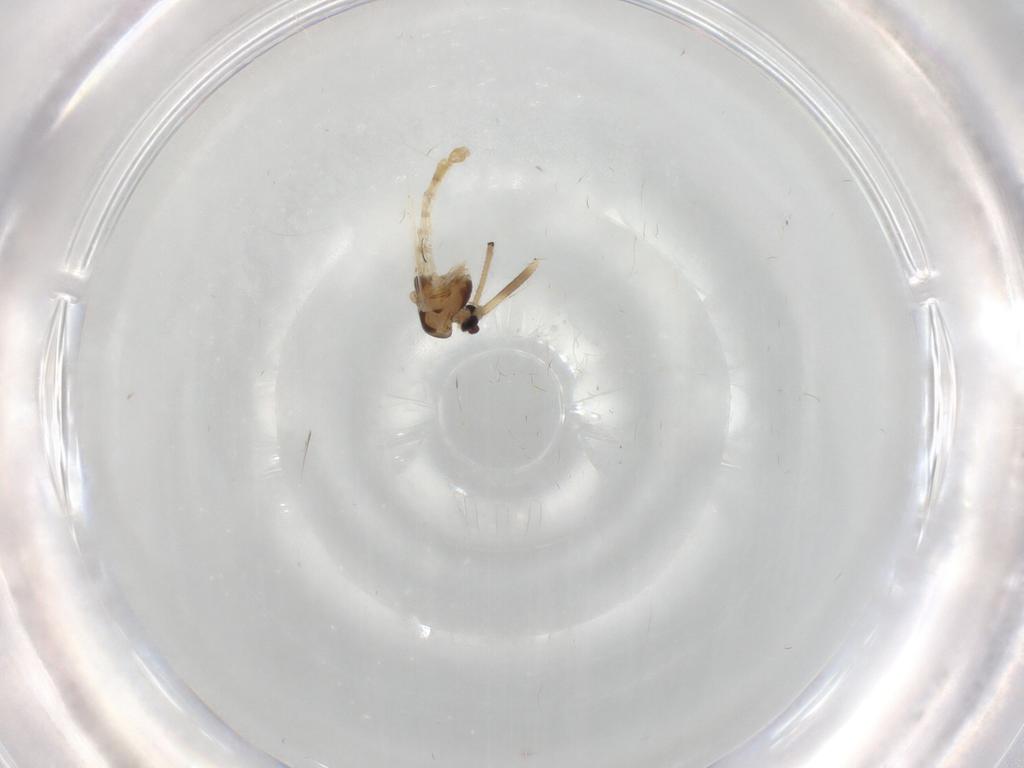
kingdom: Animalia
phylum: Arthropoda
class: Insecta
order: Diptera
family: Chironomidae
